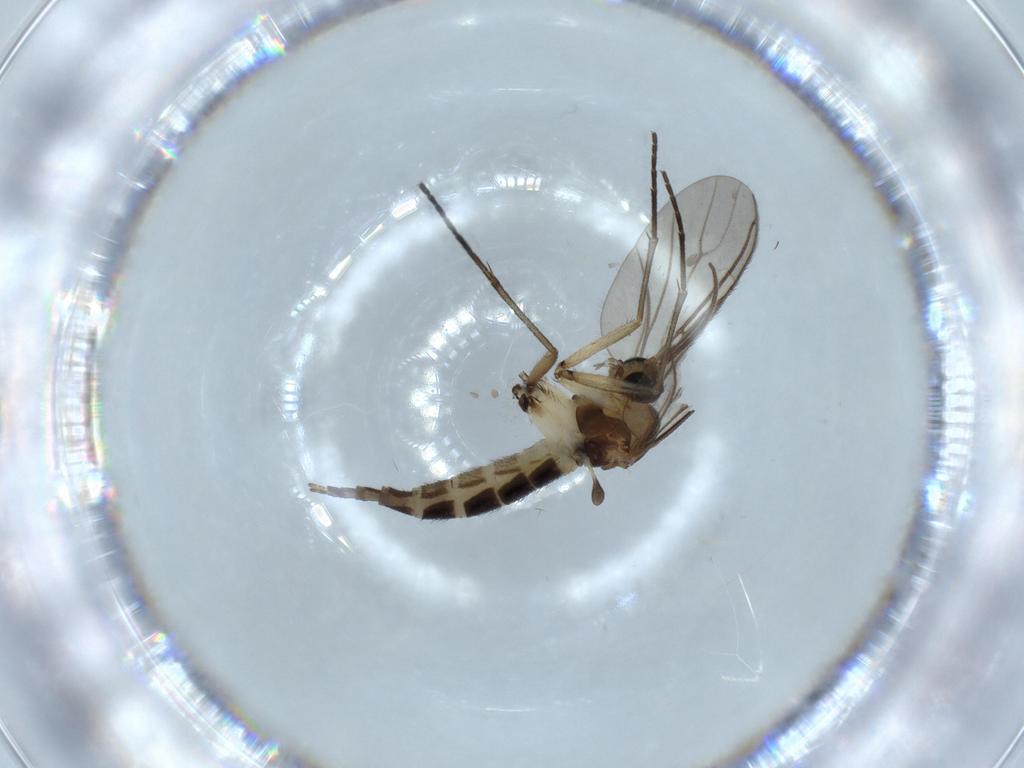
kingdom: Animalia
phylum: Arthropoda
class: Insecta
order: Diptera
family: Sciaridae
